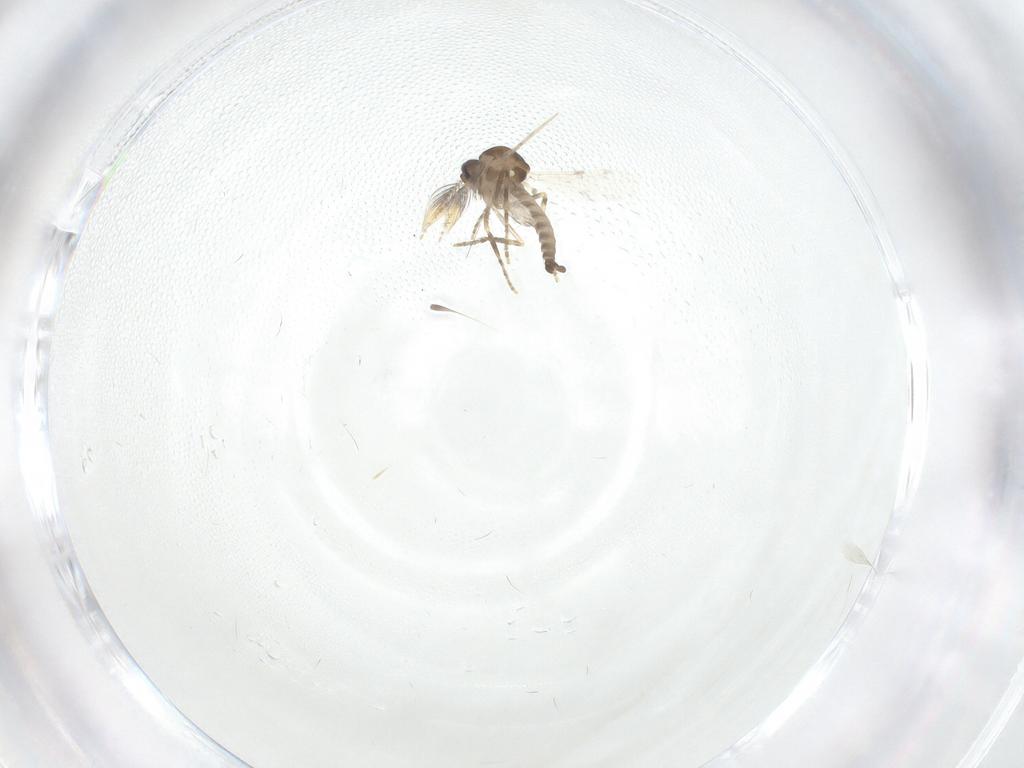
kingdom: Animalia
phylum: Arthropoda
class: Insecta
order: Diptera
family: Ceratopogonidae
